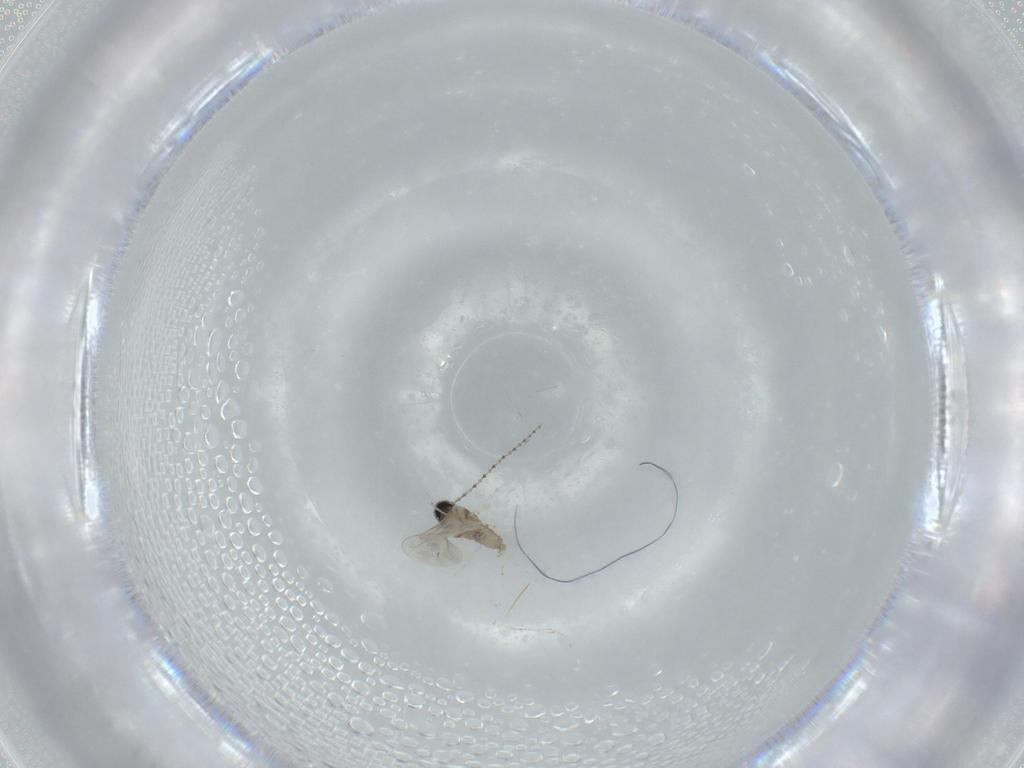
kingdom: Animalia
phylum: Arthropoda
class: Insecta
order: Diptera
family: Cecidomyiidae
